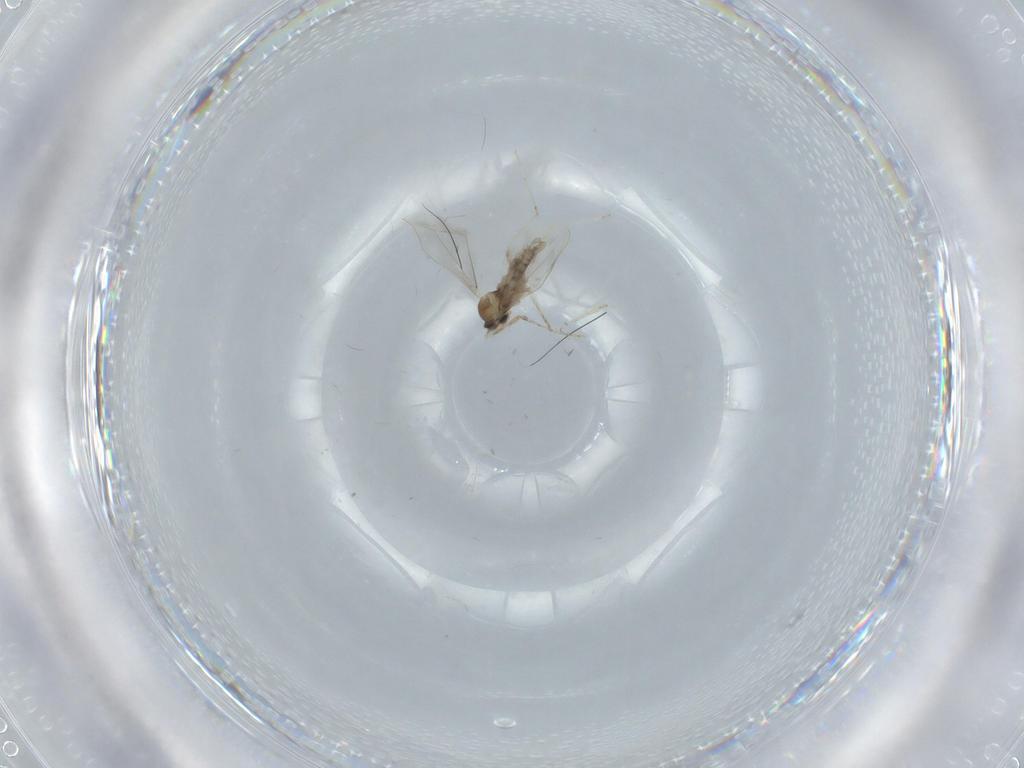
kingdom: Animalia
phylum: Arthropoda
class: Insecta
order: Diptera
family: Cecidomyiidae
